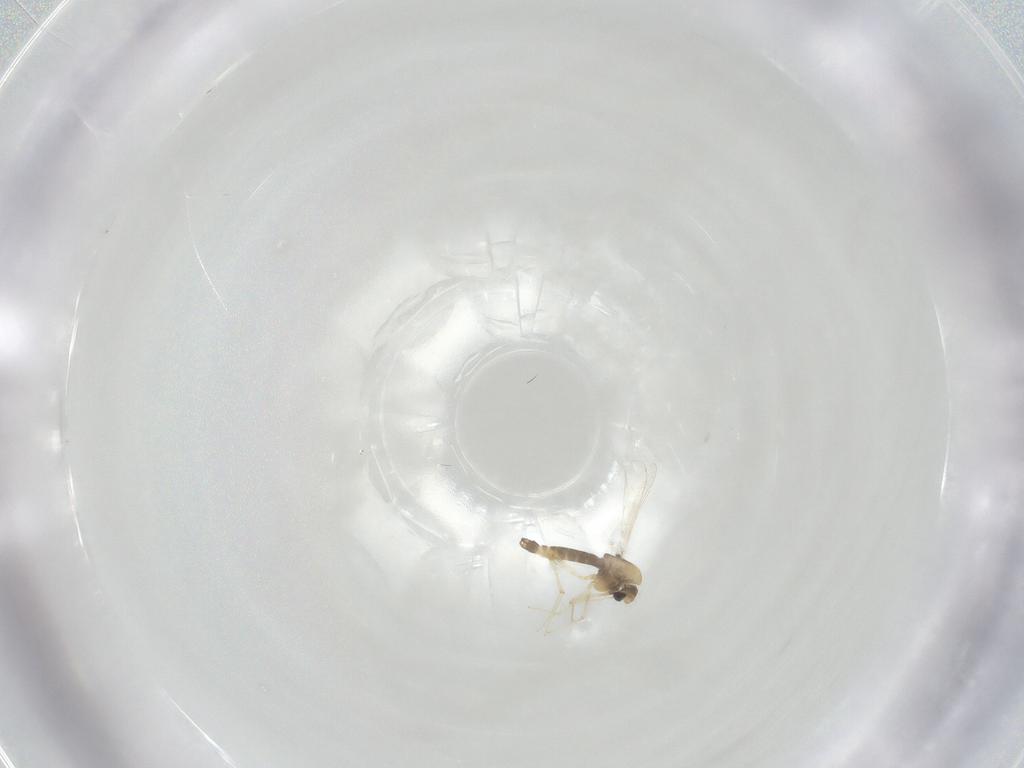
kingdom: Animalia
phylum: Arthropoda
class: Insecta
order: Diptera
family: Chironomidae
